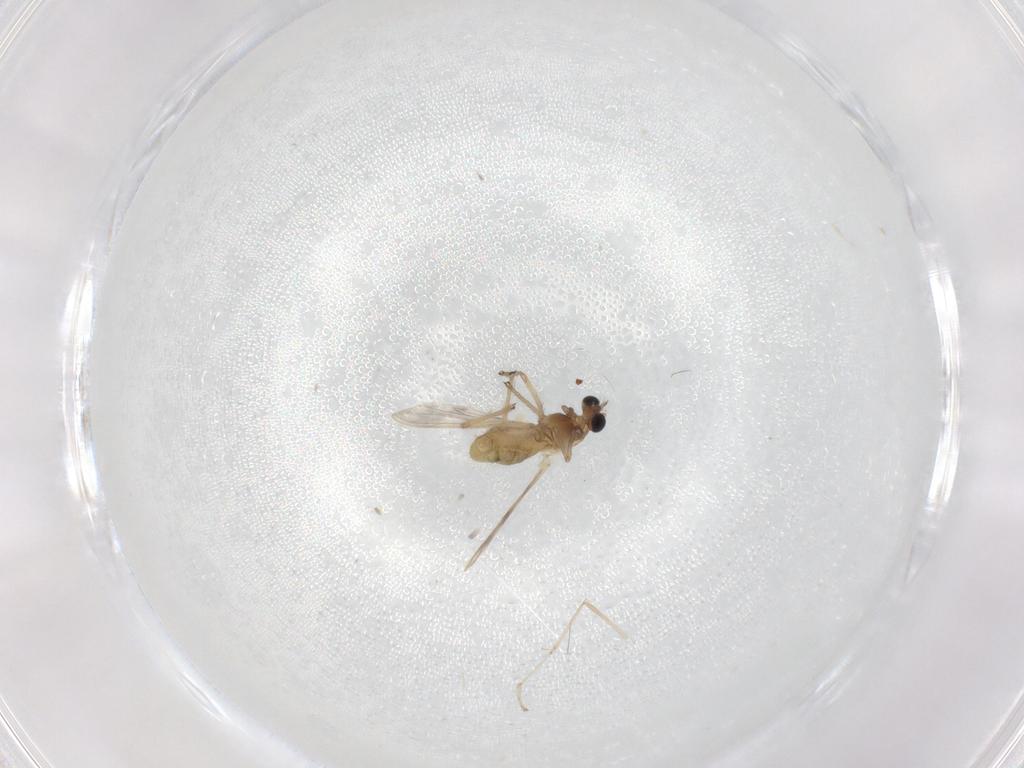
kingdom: Animalia
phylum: Arthropoda
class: Insecta
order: Diptera
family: Chironomidae
